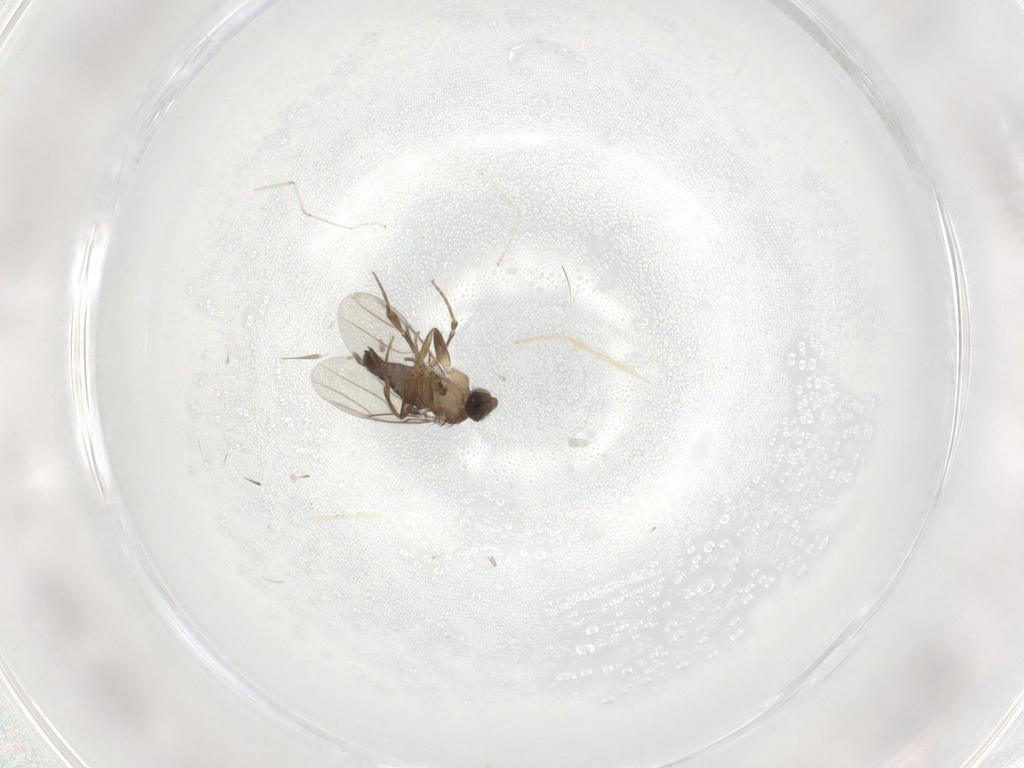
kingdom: Animalia
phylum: Arthropoda
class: Insecta
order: Diptera
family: Phoridae
